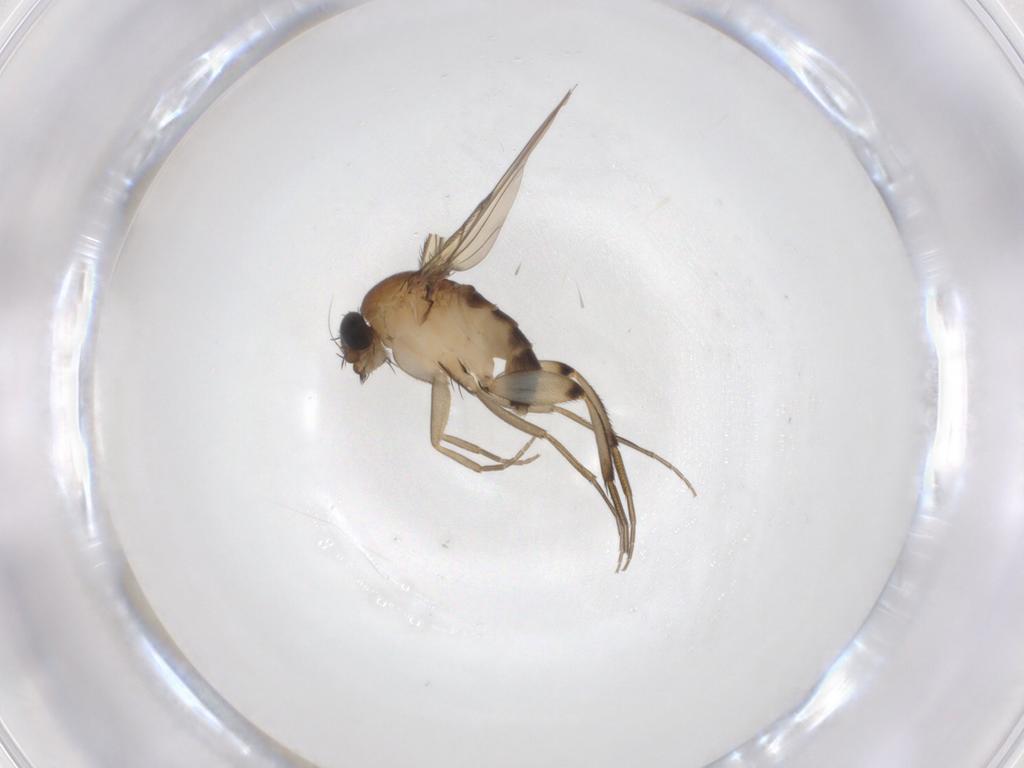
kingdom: Animalia
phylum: Arthropoda
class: Insecta
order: Diptera
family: Phoridae
